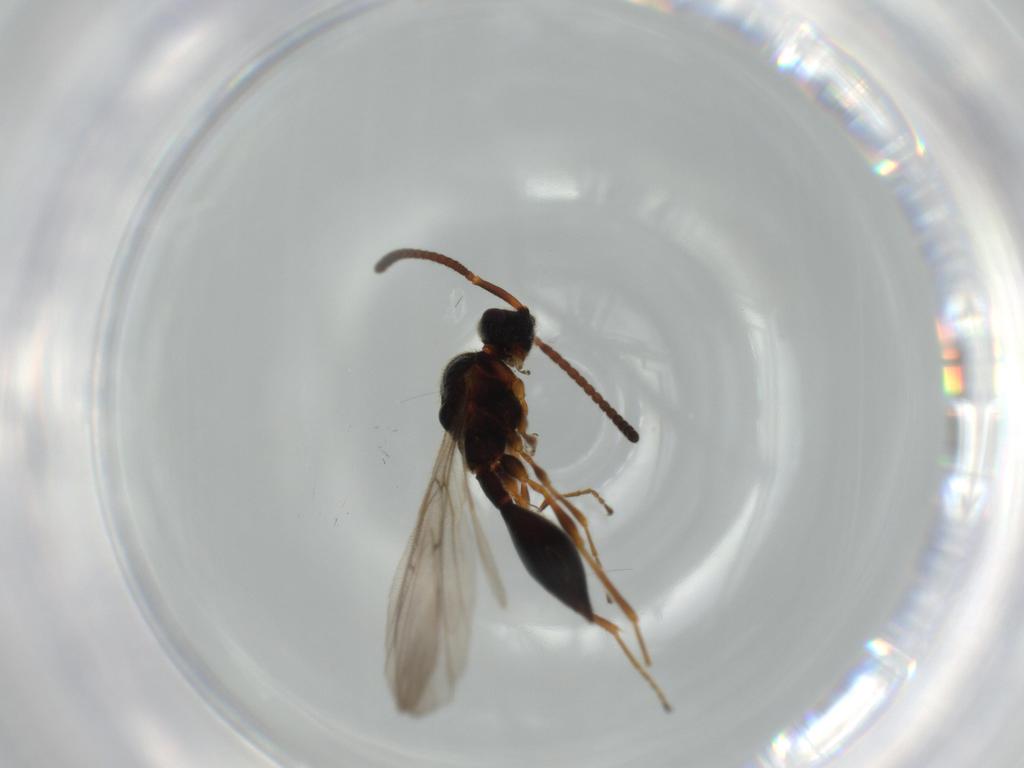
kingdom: Animalia
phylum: Arthropoda
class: Insecta
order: Hymenoptera
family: Diapriidae
